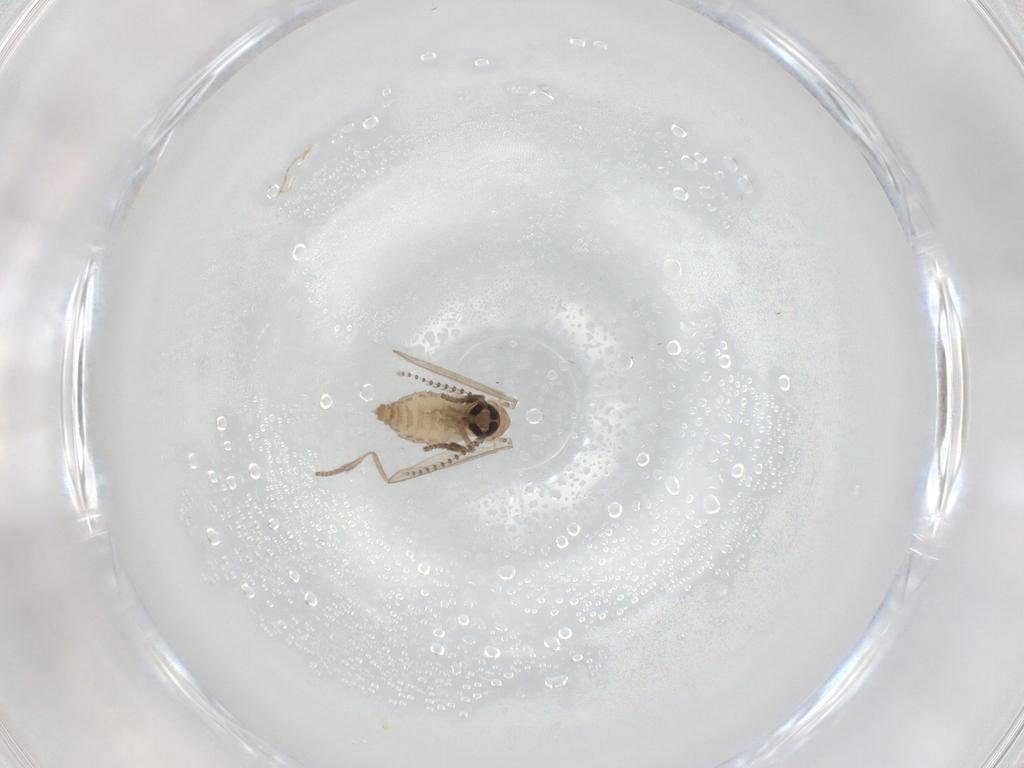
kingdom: Animalia
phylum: Arthropoda
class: Insecta
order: Diptera
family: Psychodidae
